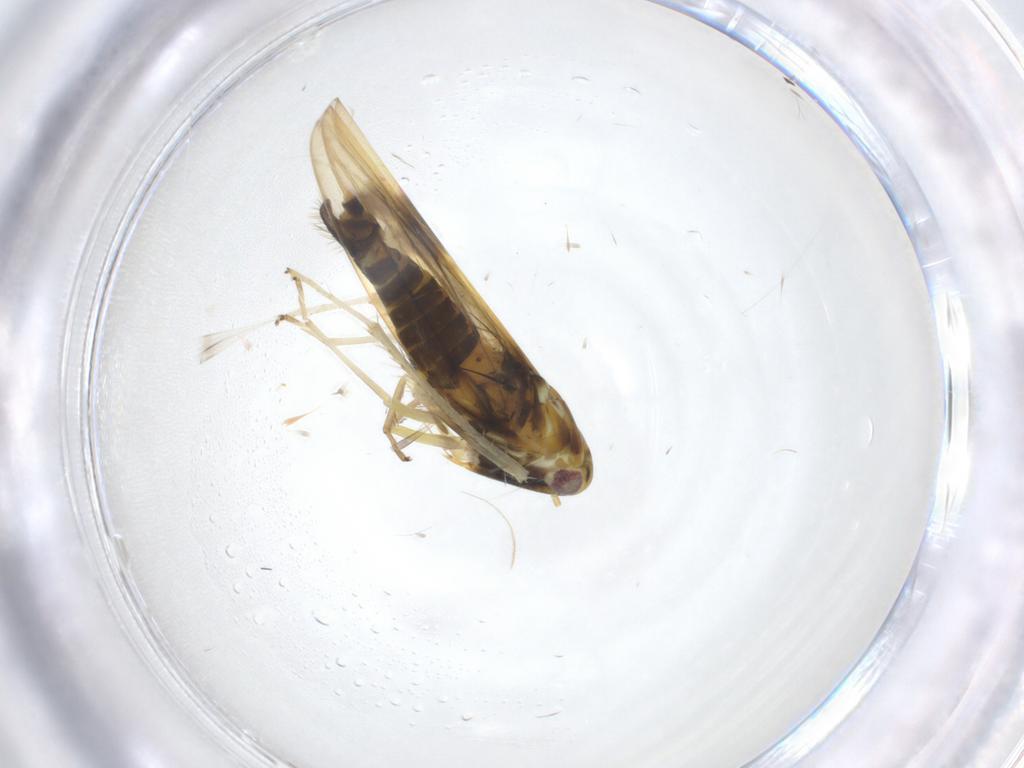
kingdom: Animalia
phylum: Arthropoda
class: Insecta
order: Hemiptera
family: Cicadellidae
